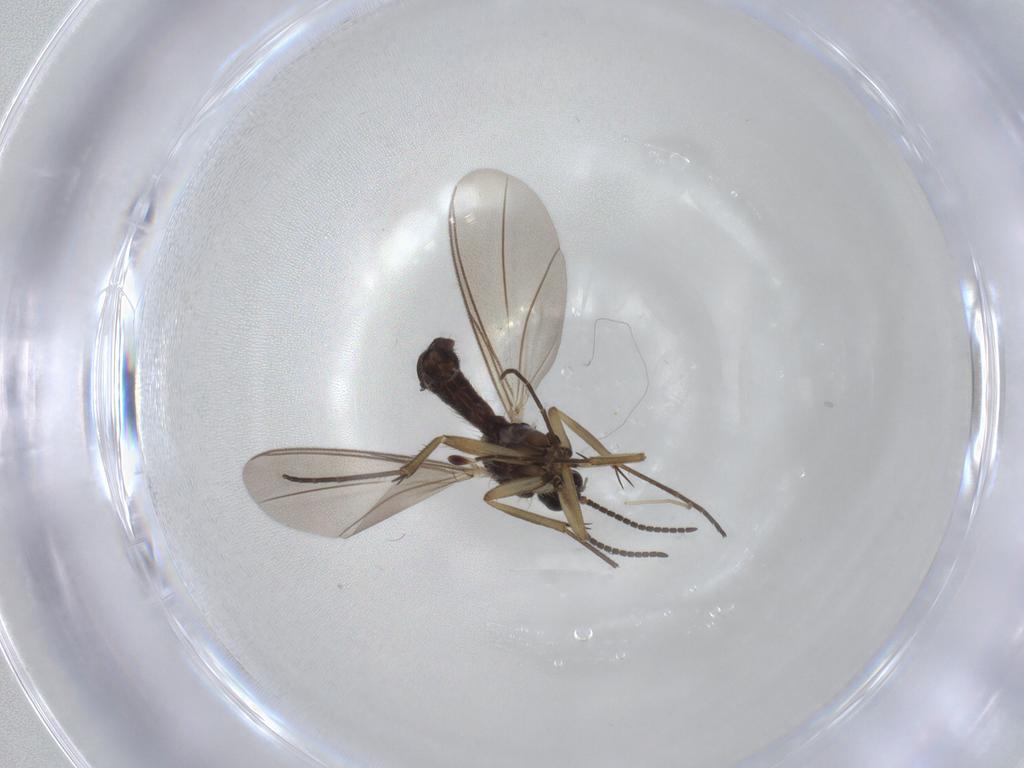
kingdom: Animalia
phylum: Arthropoda
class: Insecta
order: Diptera
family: Mycetophilidae
